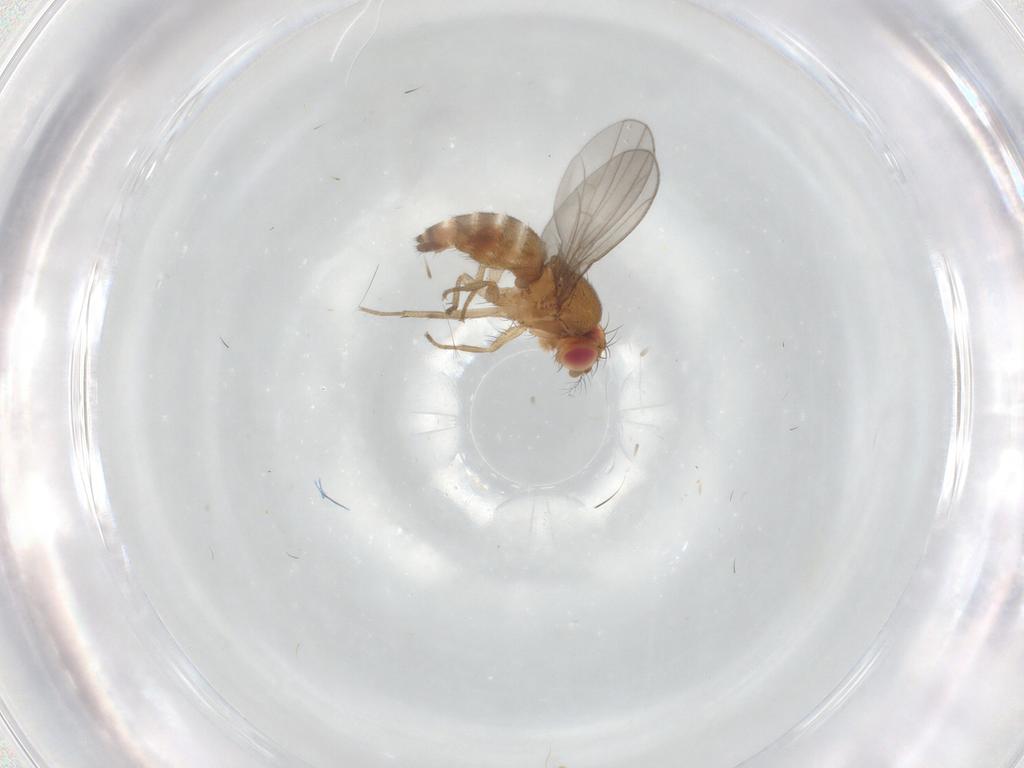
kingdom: Animalia
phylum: Arthropoda
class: Insecta
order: Diptera
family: Drosophilidae
